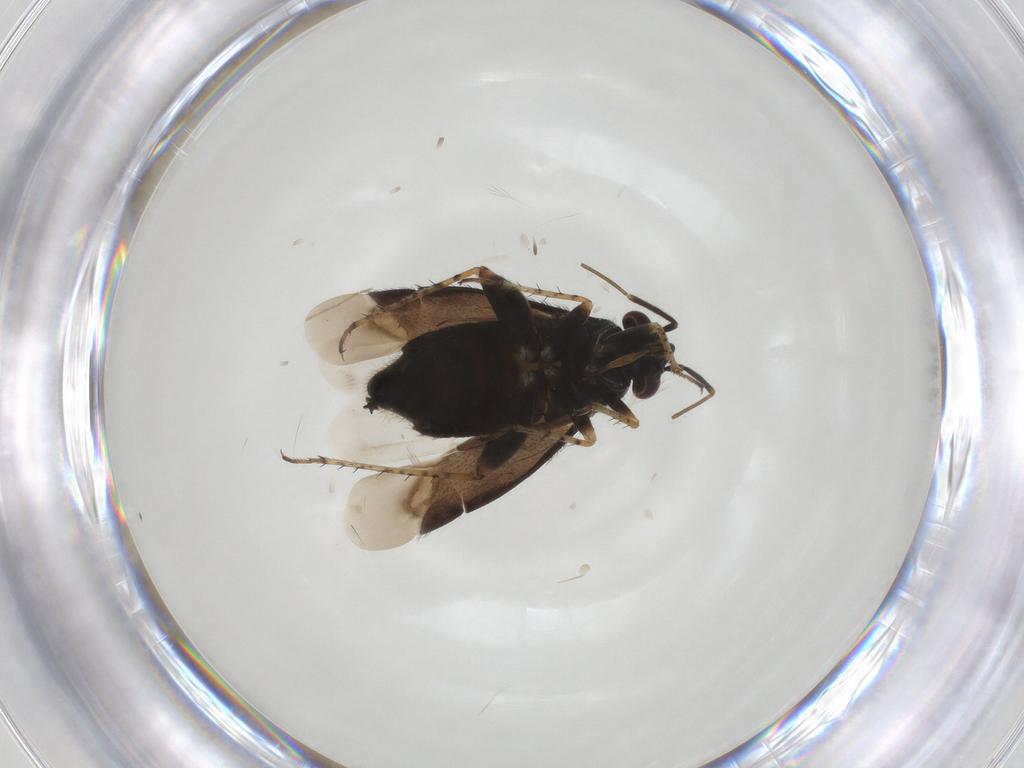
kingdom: Animalia
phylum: Arthropoda
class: Insecta
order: Hemiptera
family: Miridae
